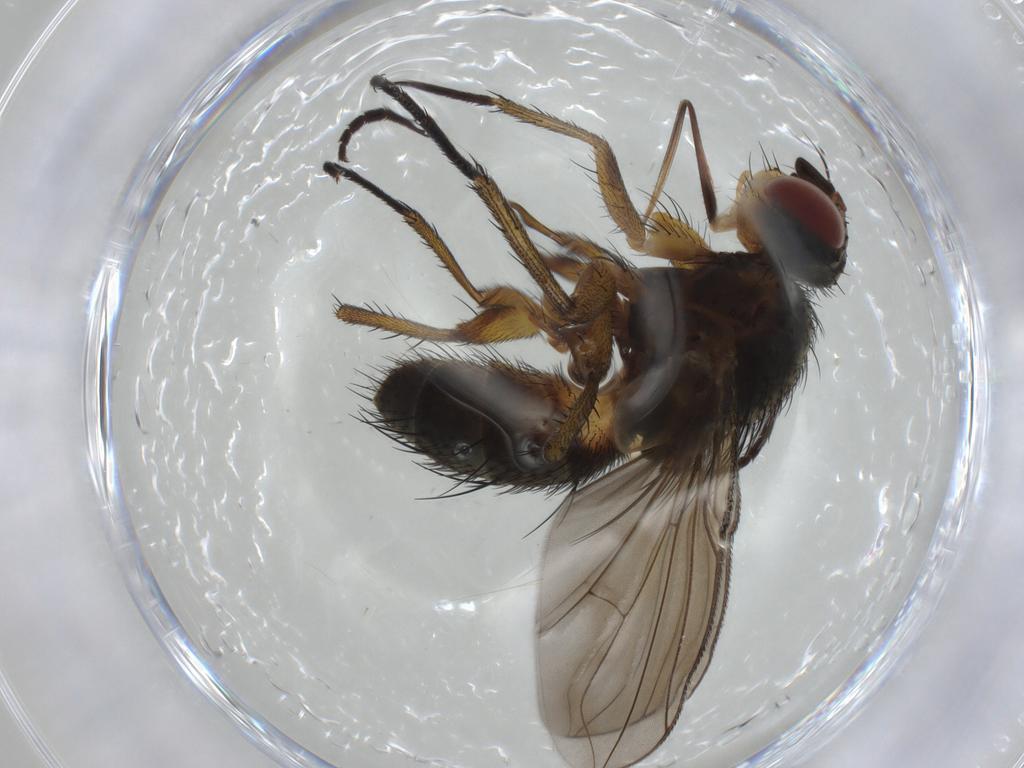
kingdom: Animalia
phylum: Arthropoda
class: Insecta
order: Diptera
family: Tachinidae
